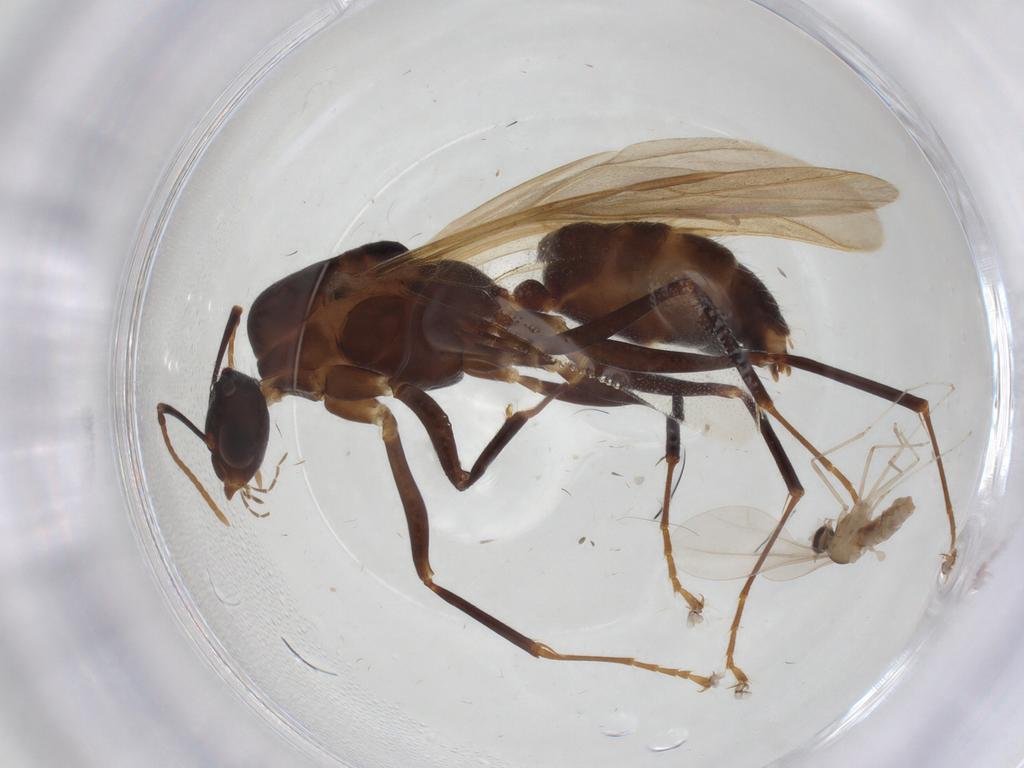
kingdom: Animalia
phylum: Arthropoda
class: Insecta
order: Diptera
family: Cecidomyiidae
